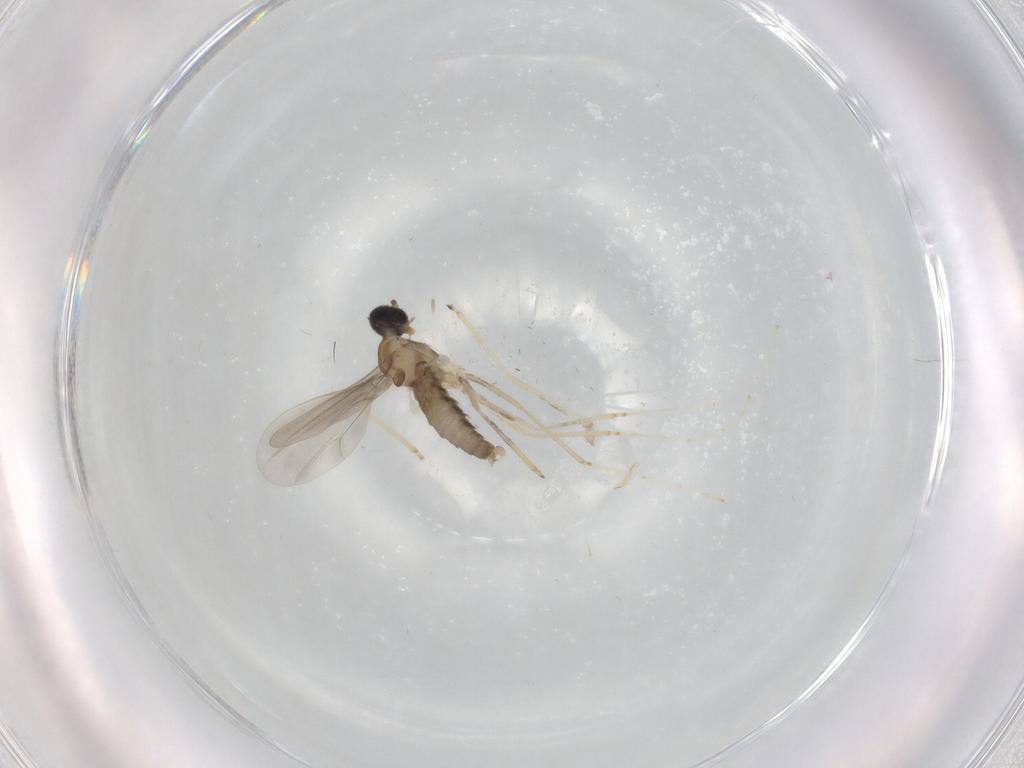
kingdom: Animalia
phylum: Arthropoda
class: Insecta
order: Diptera
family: Cecidomyiidae
